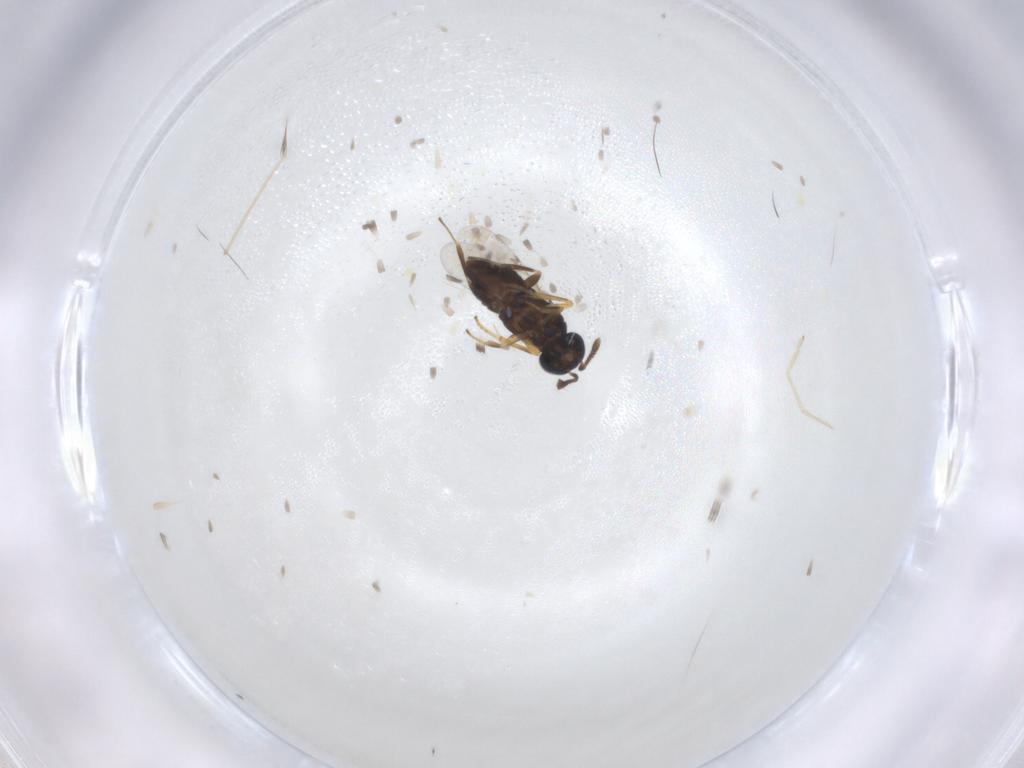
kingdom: Animalia
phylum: Arthropoda
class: Insecta
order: Hymenoptera
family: Encyrtidae
